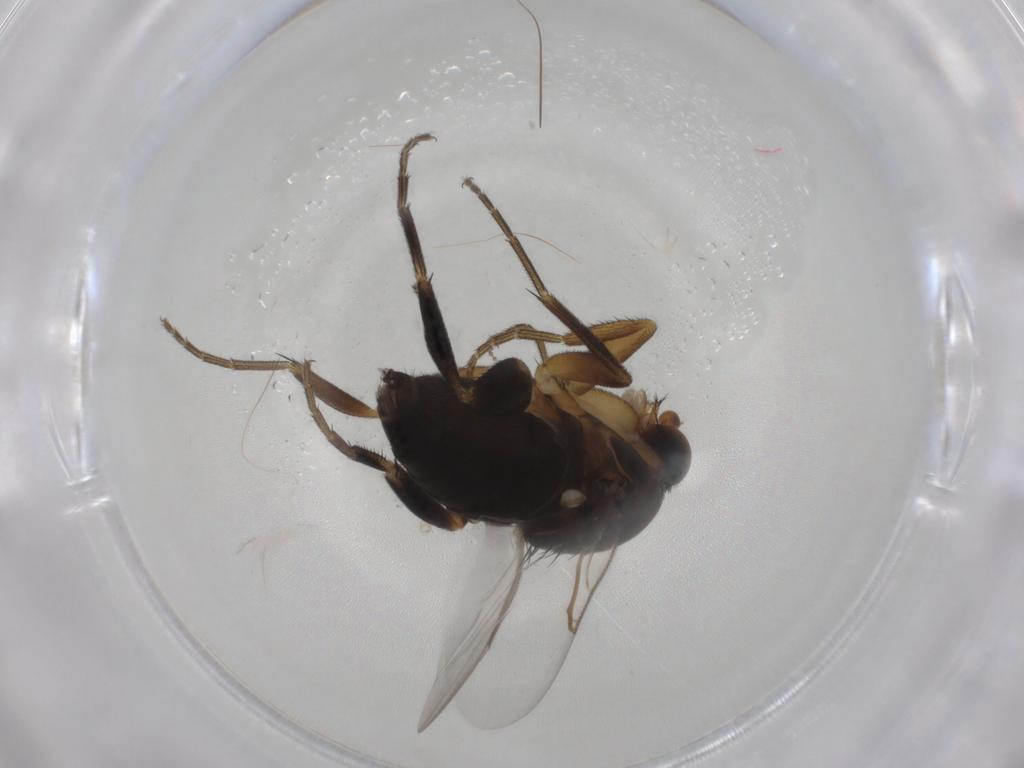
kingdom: Animalia
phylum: Arthropoda
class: Insecta
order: Diptera
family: Phoridae
